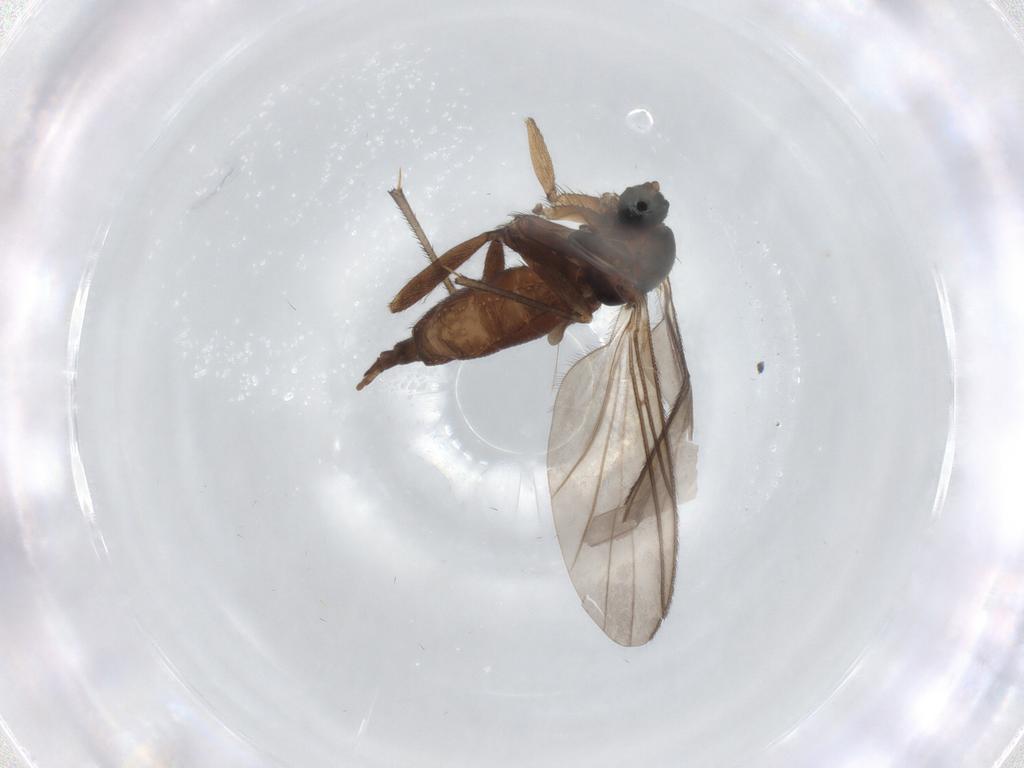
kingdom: Animalia
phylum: Arthropoda
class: Insecta
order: Diptera
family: Sciaridae
